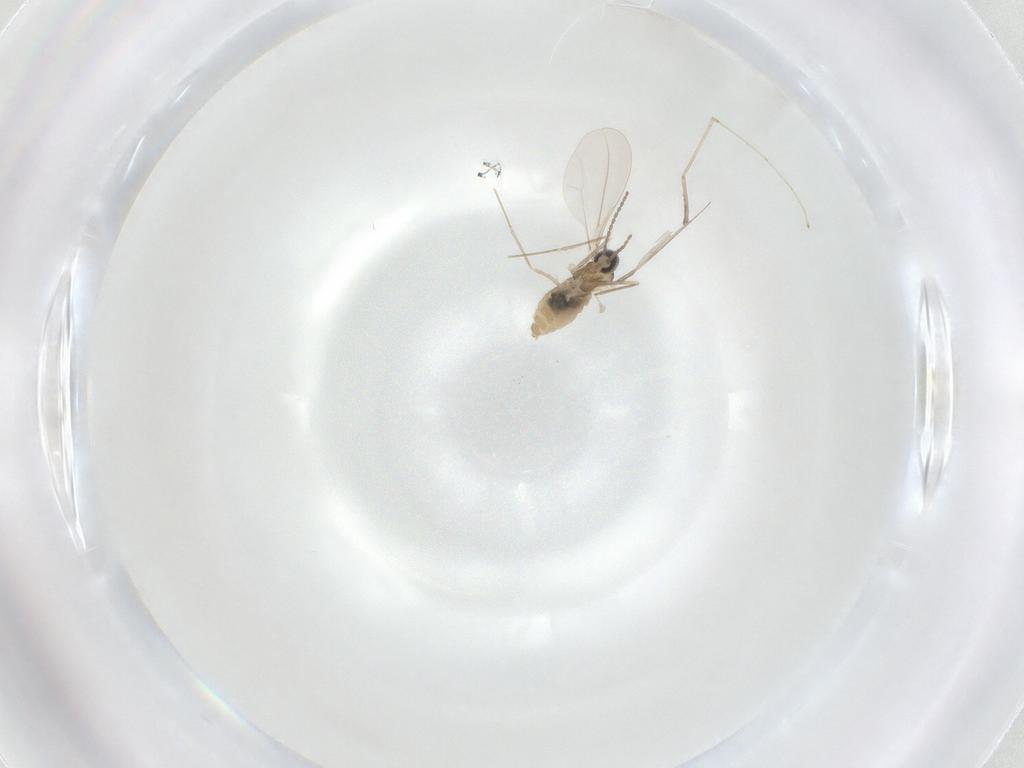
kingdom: Animalia
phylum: Arthropoda
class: Insecta
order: Diptera
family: Cecidomyiidae
